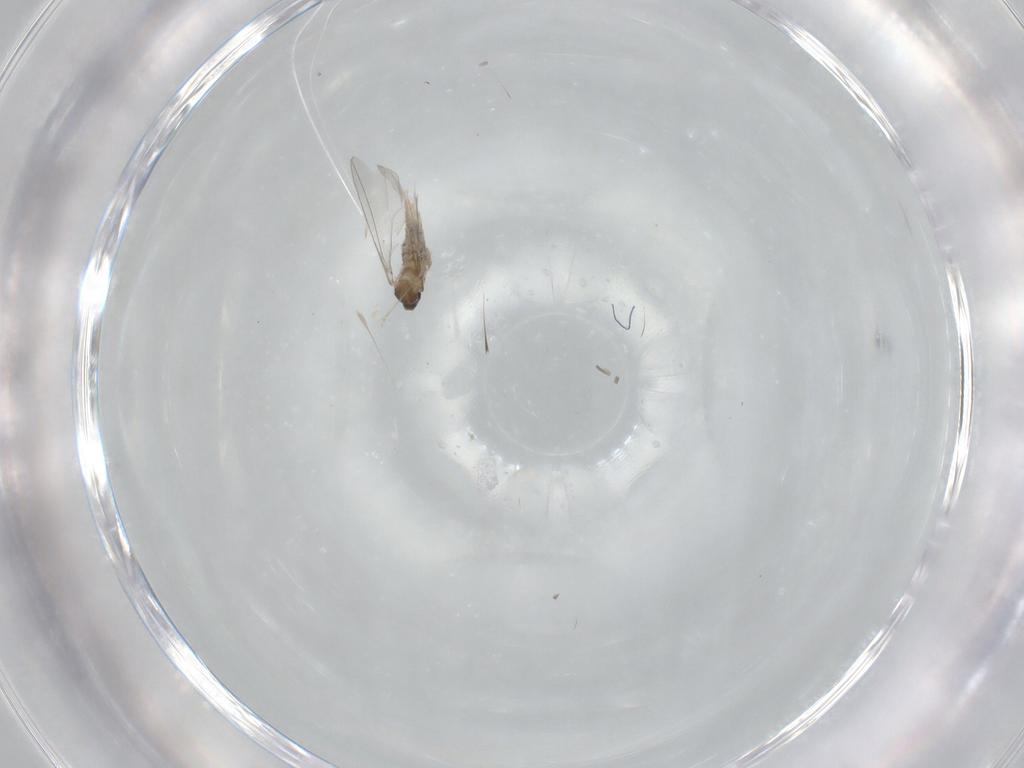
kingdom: Animalia
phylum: Arthropoda
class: Insecta
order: Diptera
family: Cecidomyiidae
